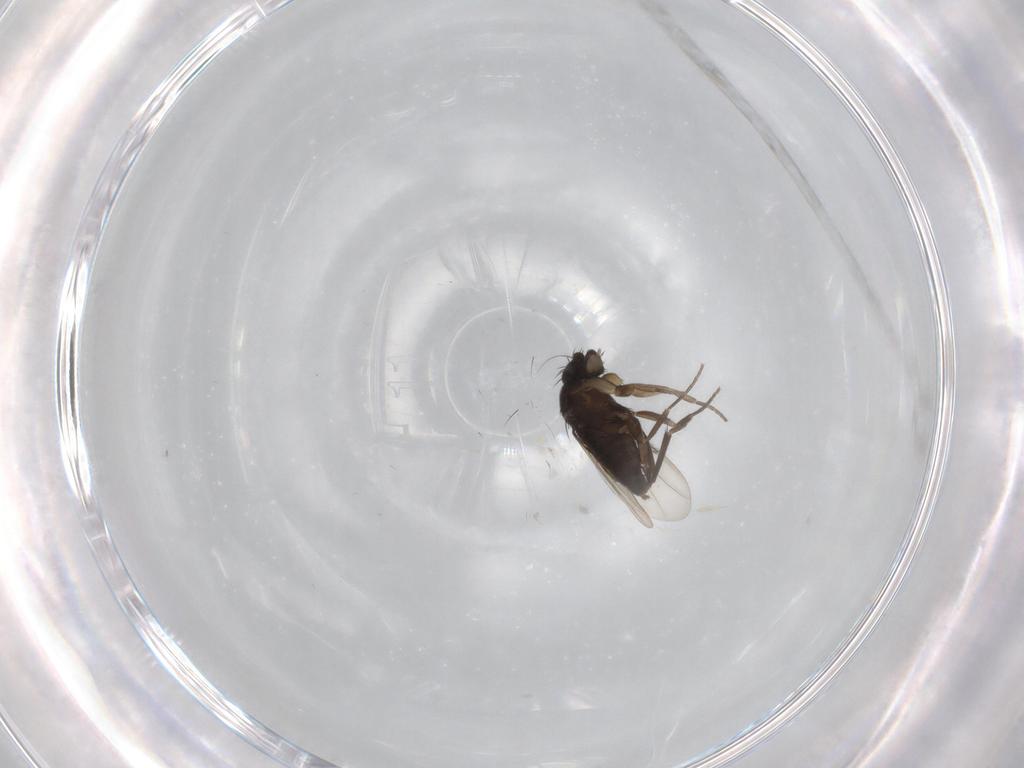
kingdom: Animalia
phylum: Arthropoda
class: Insecta
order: Diptera
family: Phoridae
